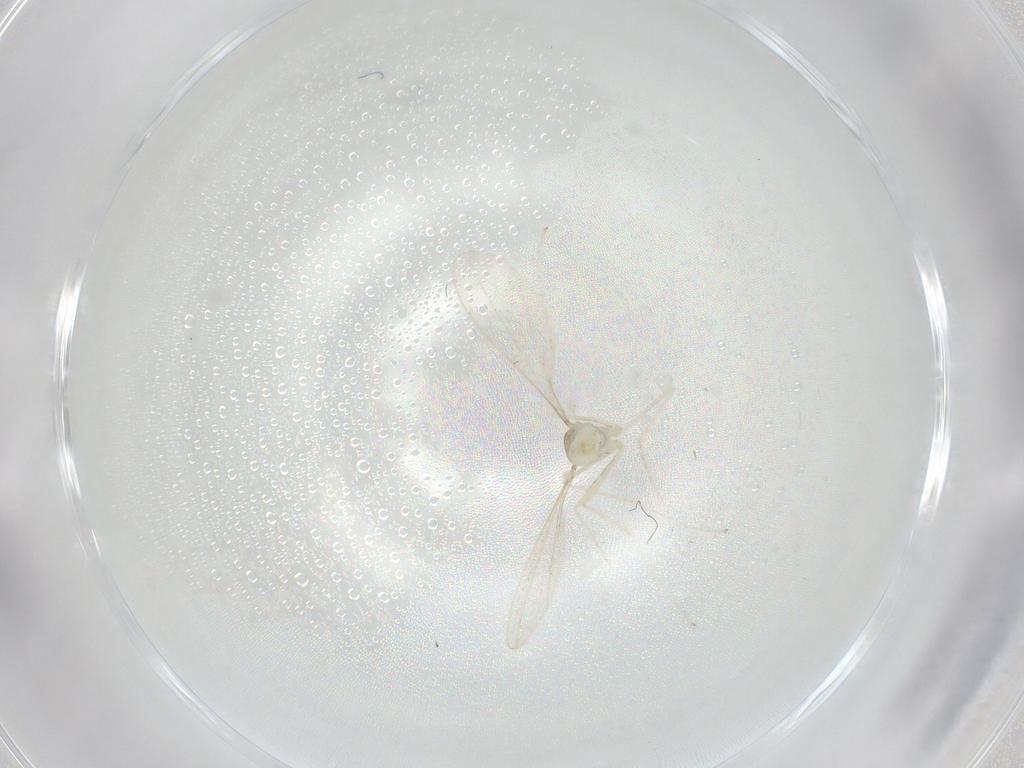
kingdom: Animalia
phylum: Arthropoda
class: Insecta
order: Diptera
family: Cecidomyiidae
